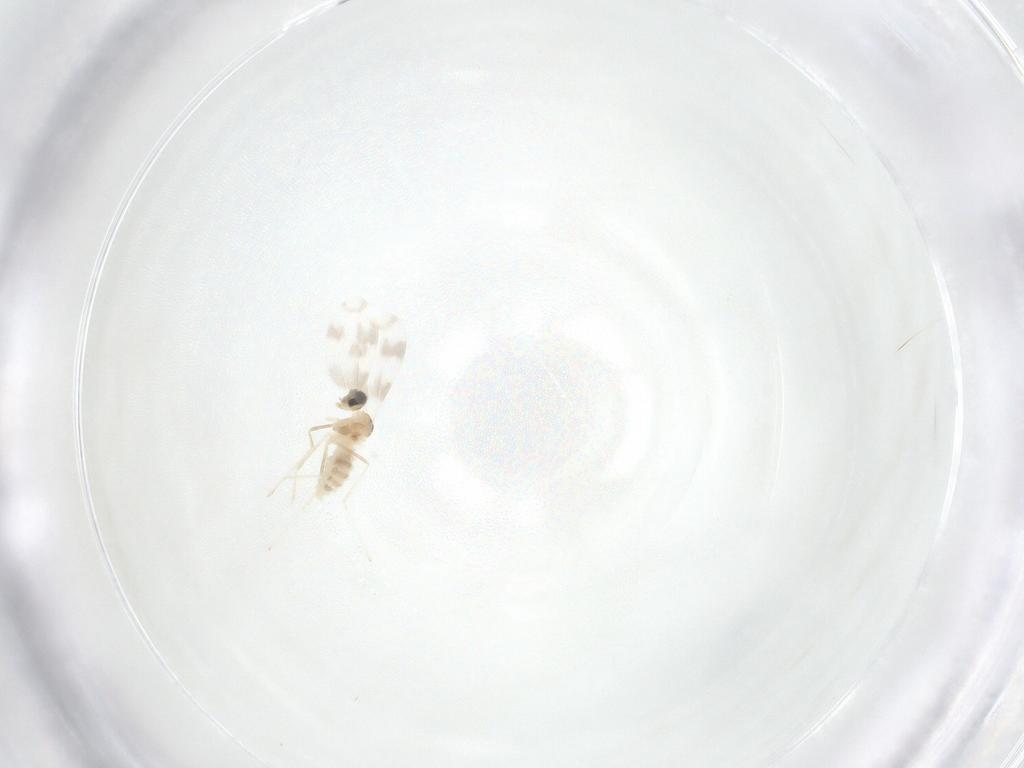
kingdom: Animalia
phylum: Arthropoda
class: Insecta
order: Diptera
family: Cecidomyiidae
